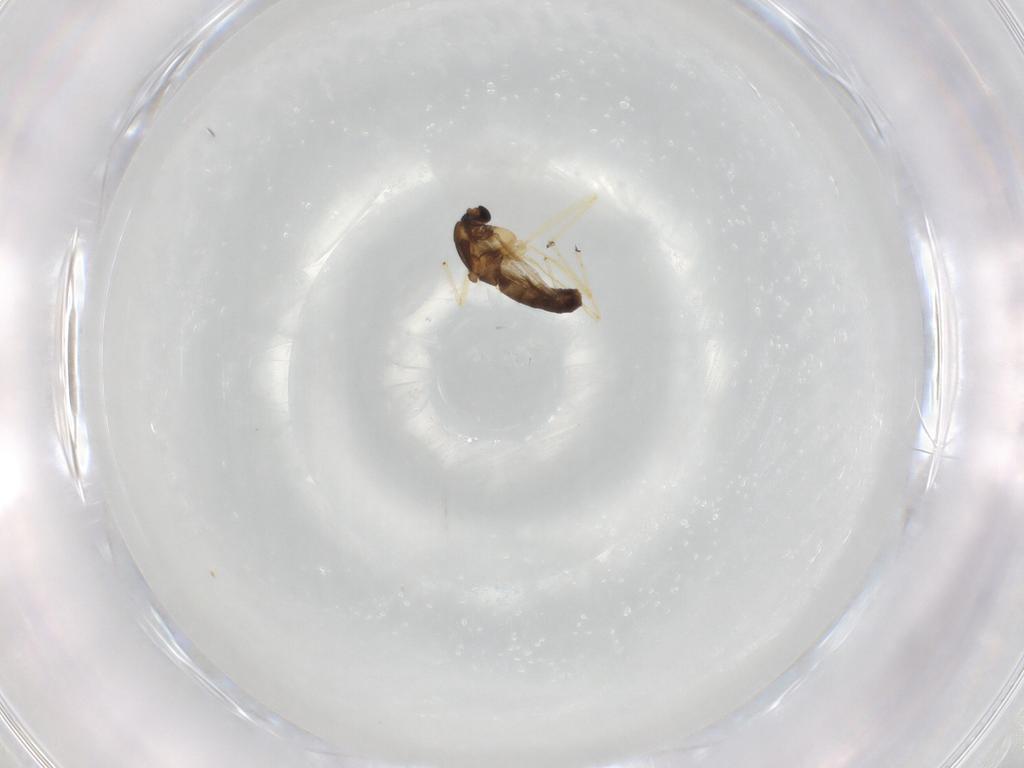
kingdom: Animalia
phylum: Arthropoda
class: Insecta
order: Diptera
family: Chironomidae
